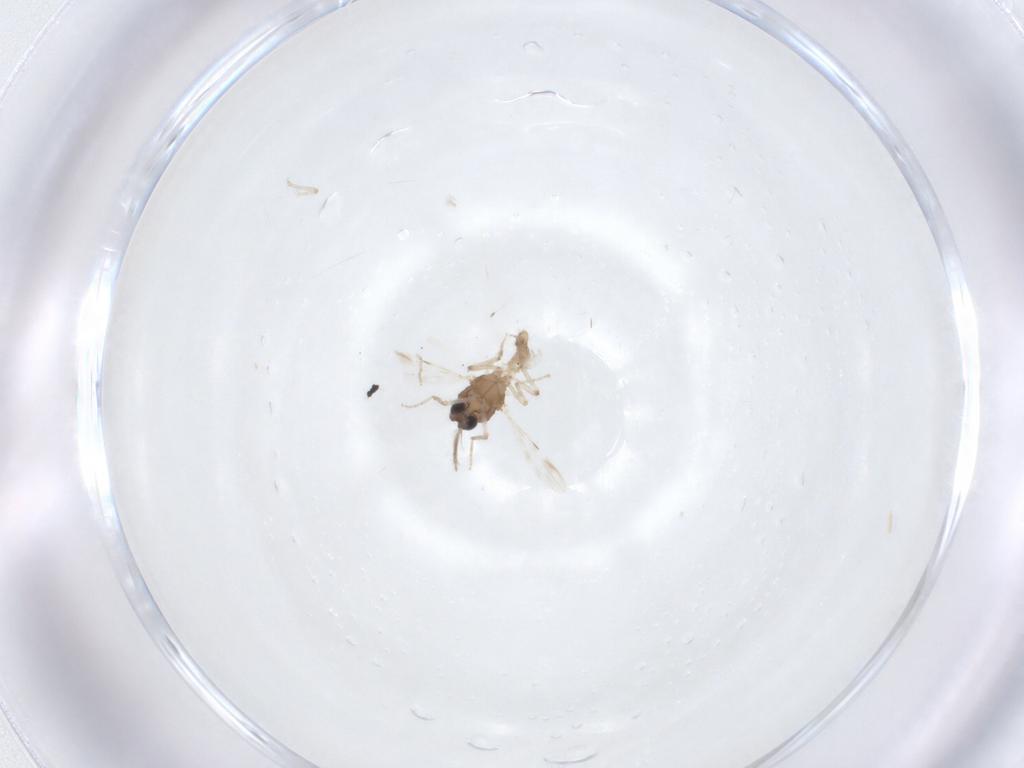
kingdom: Animalia
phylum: Arthropoda
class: Insecta
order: Diptera
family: Ceratopogonidae
